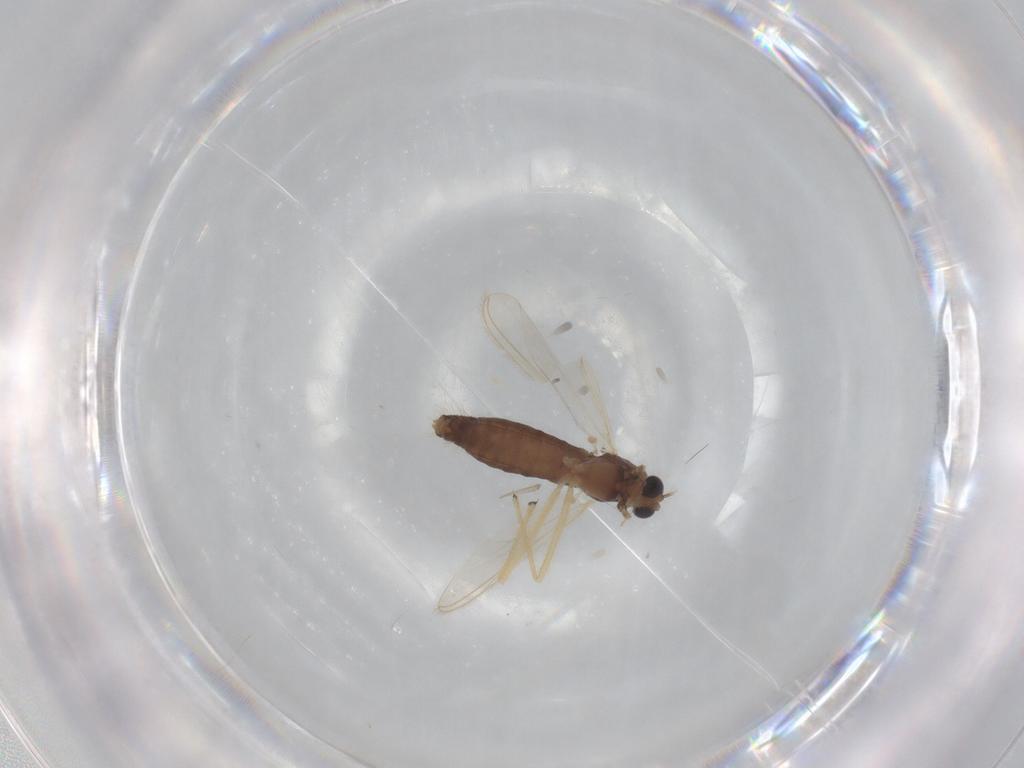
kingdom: Animalia
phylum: Arthropoda
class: Insecta
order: Diptera
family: Chironomidae
